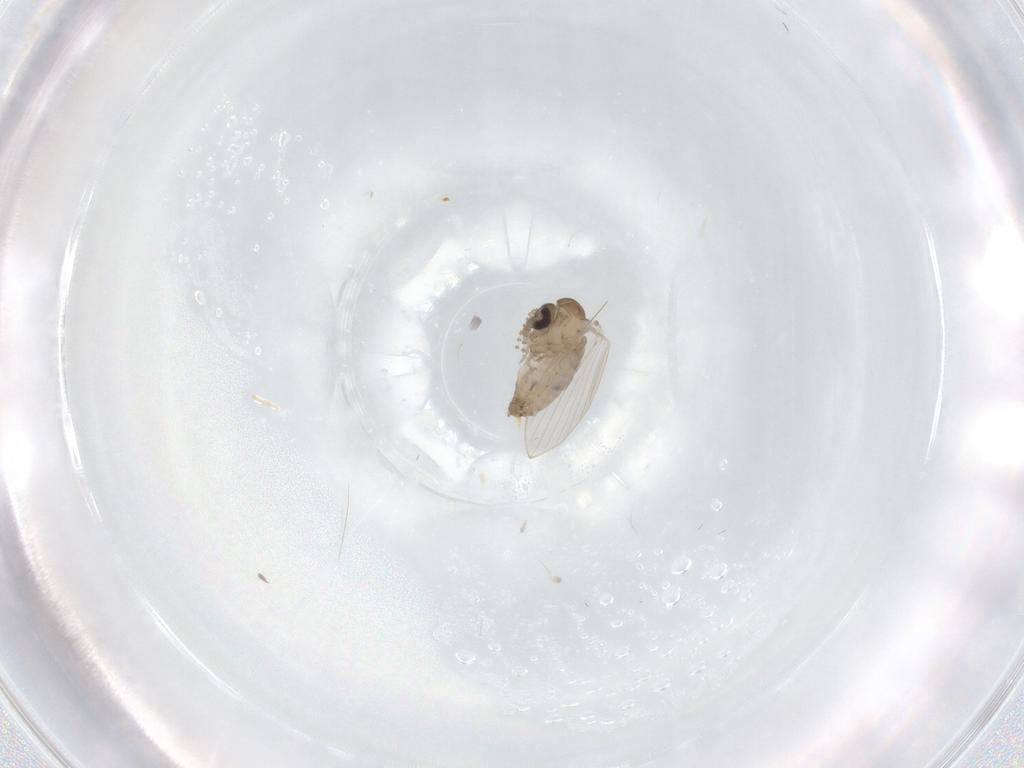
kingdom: Animalia
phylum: Arthropoda
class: Insecta
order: Diptera
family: Psychodidae
